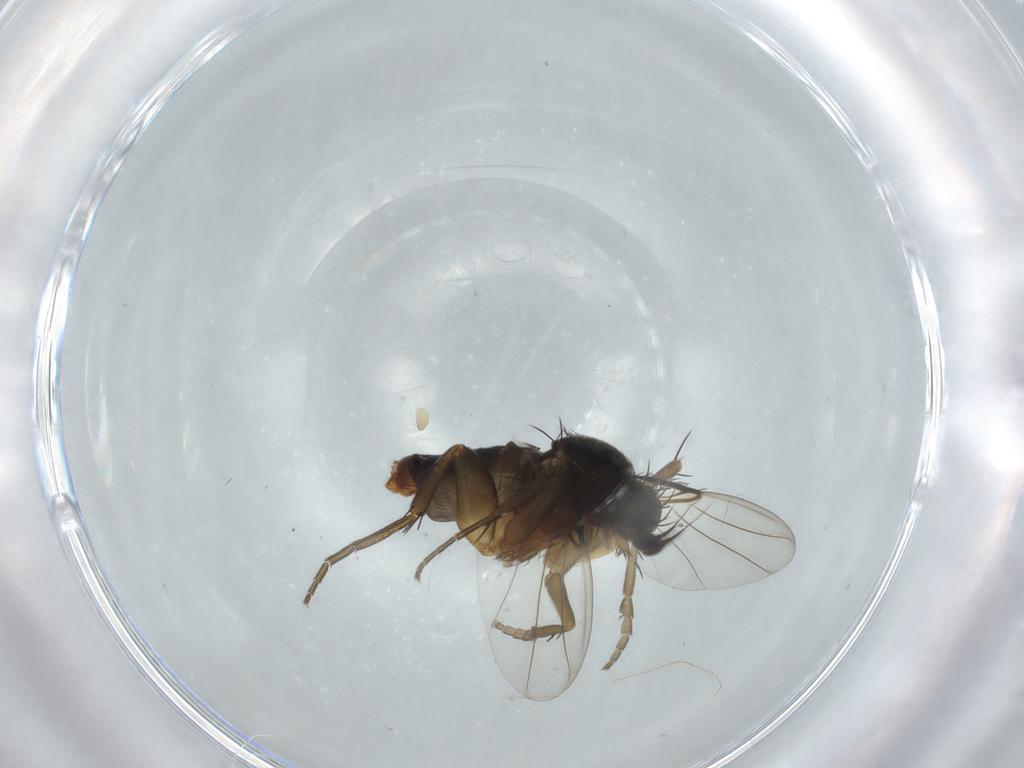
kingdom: Animalia
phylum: Arthropoda
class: Insecta
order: Diptera
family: Phoridae
